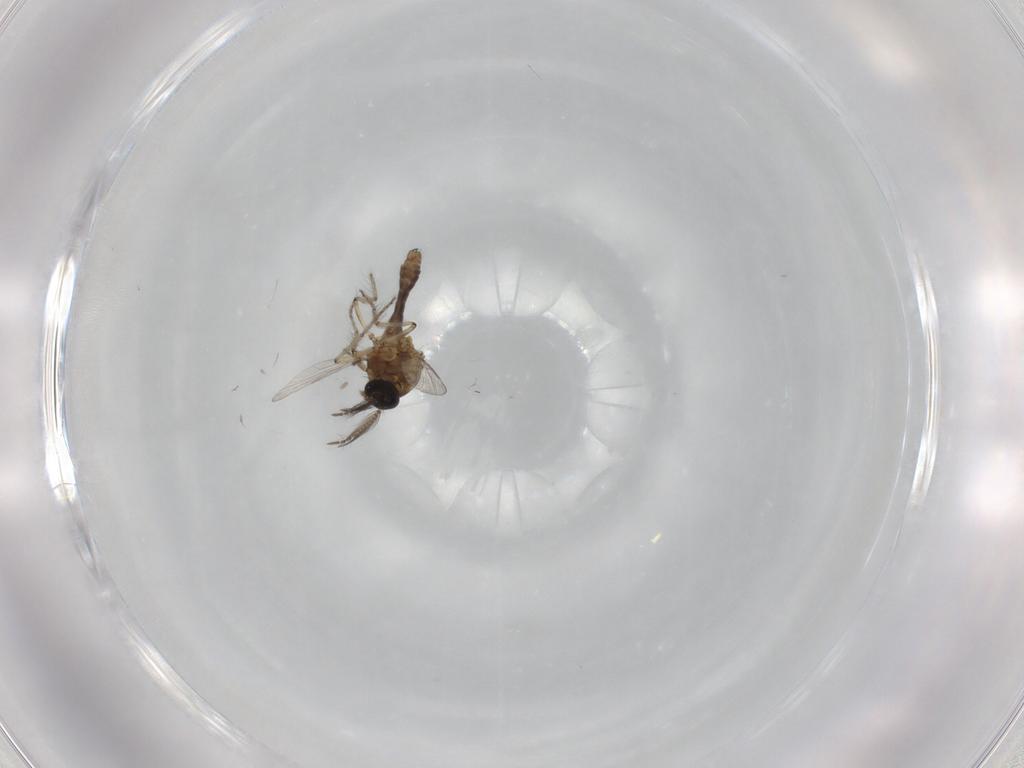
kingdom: Animalia
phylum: Arthropoda
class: Insecta
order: Diptera
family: Ceratopogonidae
